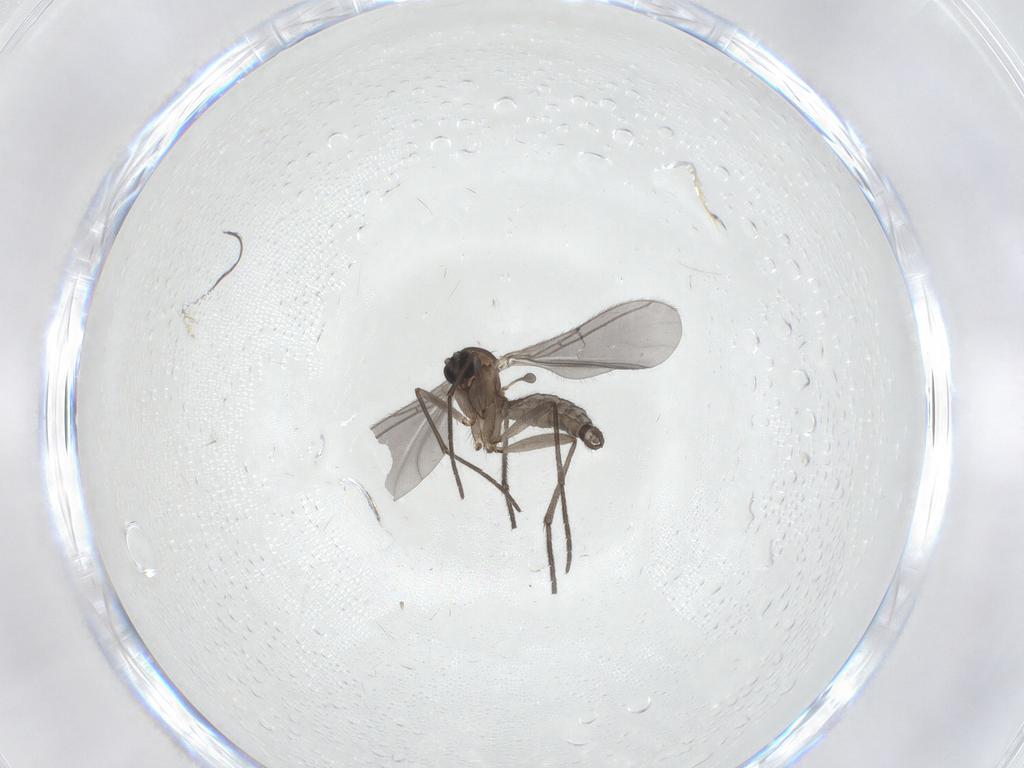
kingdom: Animalia
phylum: Arthropoda
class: Insecta
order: Diptera
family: Sciaridae
